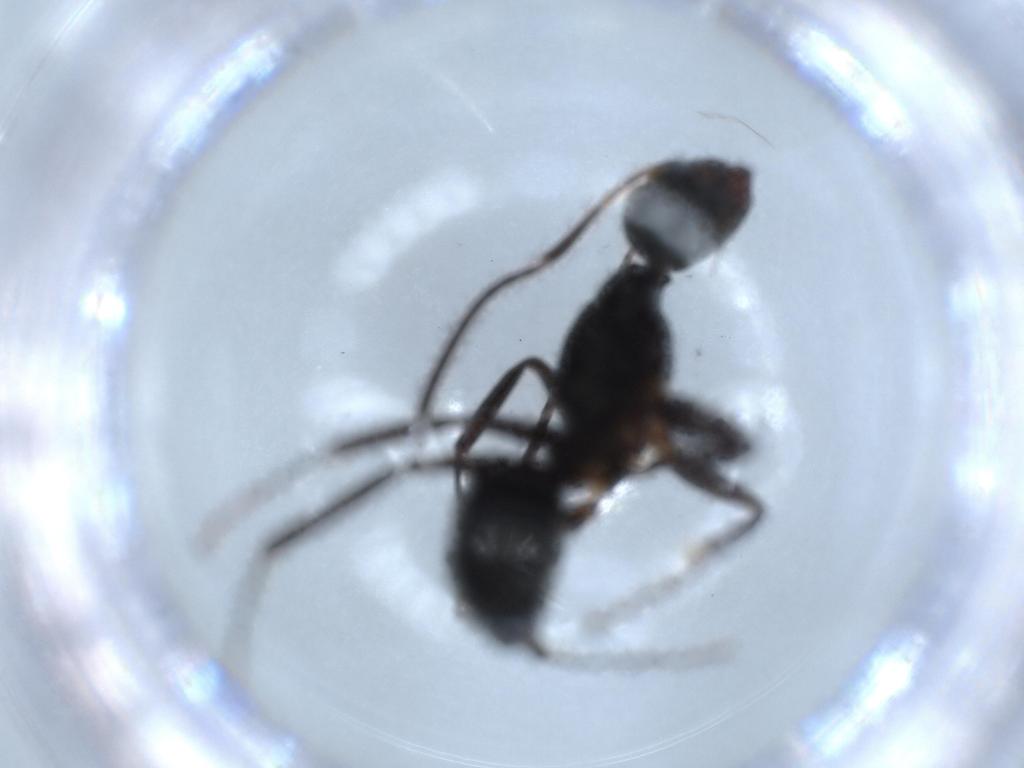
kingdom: Animalia
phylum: Arthropoda
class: Insecta
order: Hymenoptera
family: Formicidae
